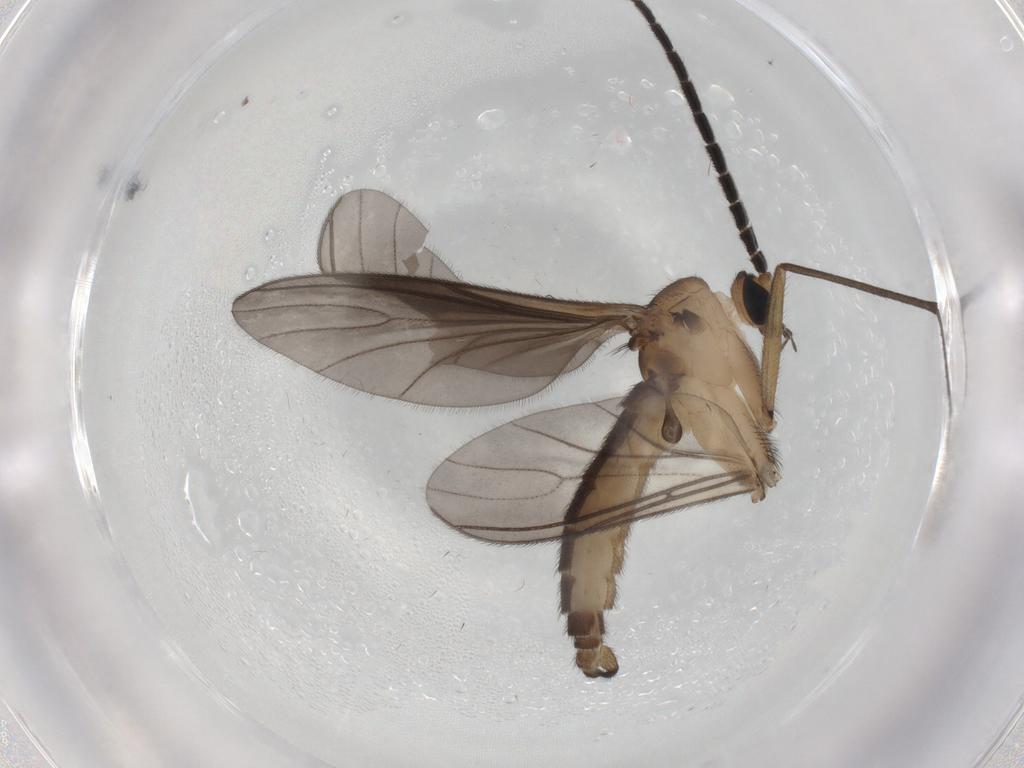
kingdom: Animalia
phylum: Arthropoda
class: Insecta
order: Diptera
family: Sciaridae
